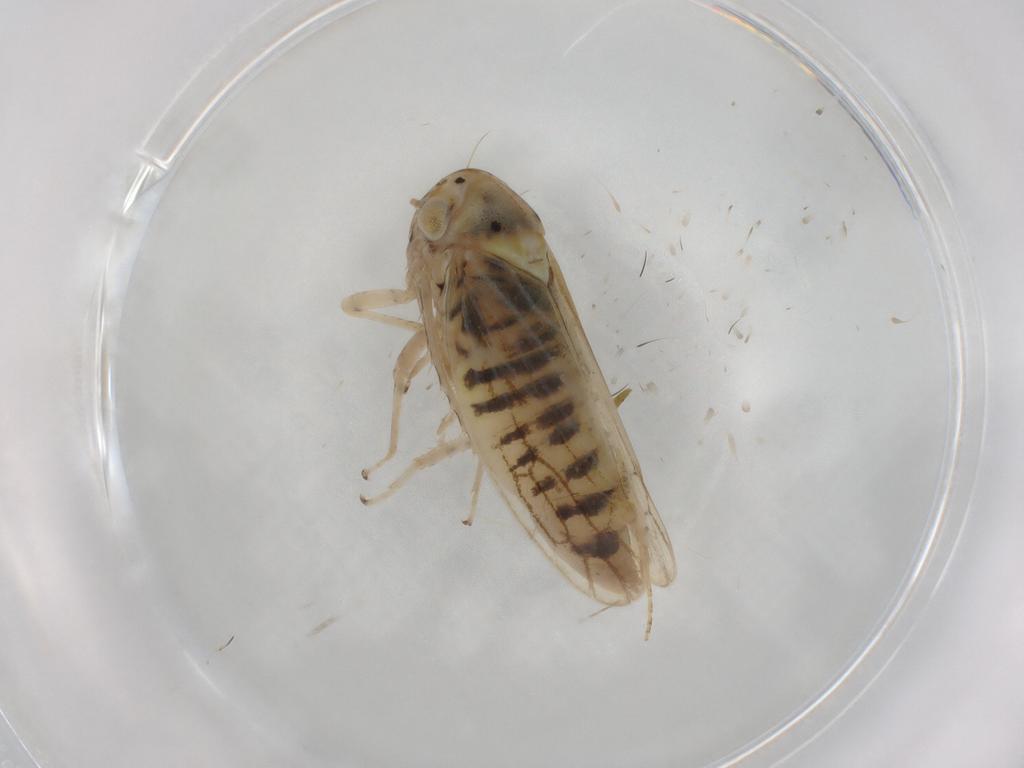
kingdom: Animalia
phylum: Arthropoda
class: Insecta
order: Hemiptera
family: Cicadellidae
